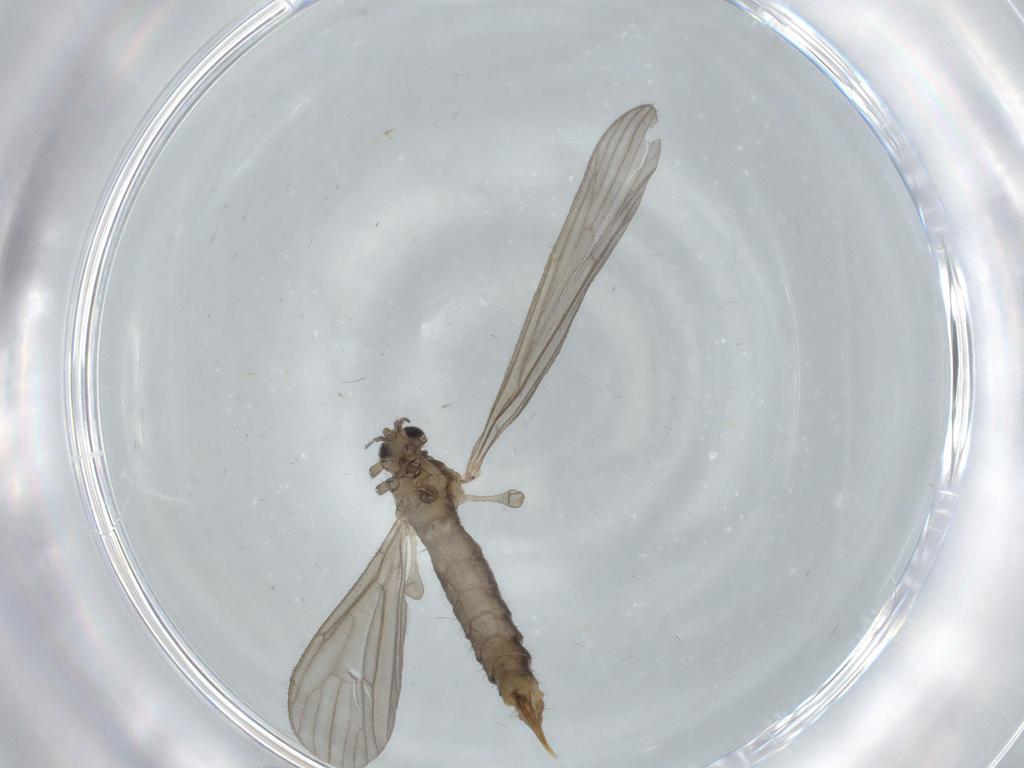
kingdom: Animalia
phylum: Arthropoda
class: Insecta
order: Diptera
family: Limoniidae
